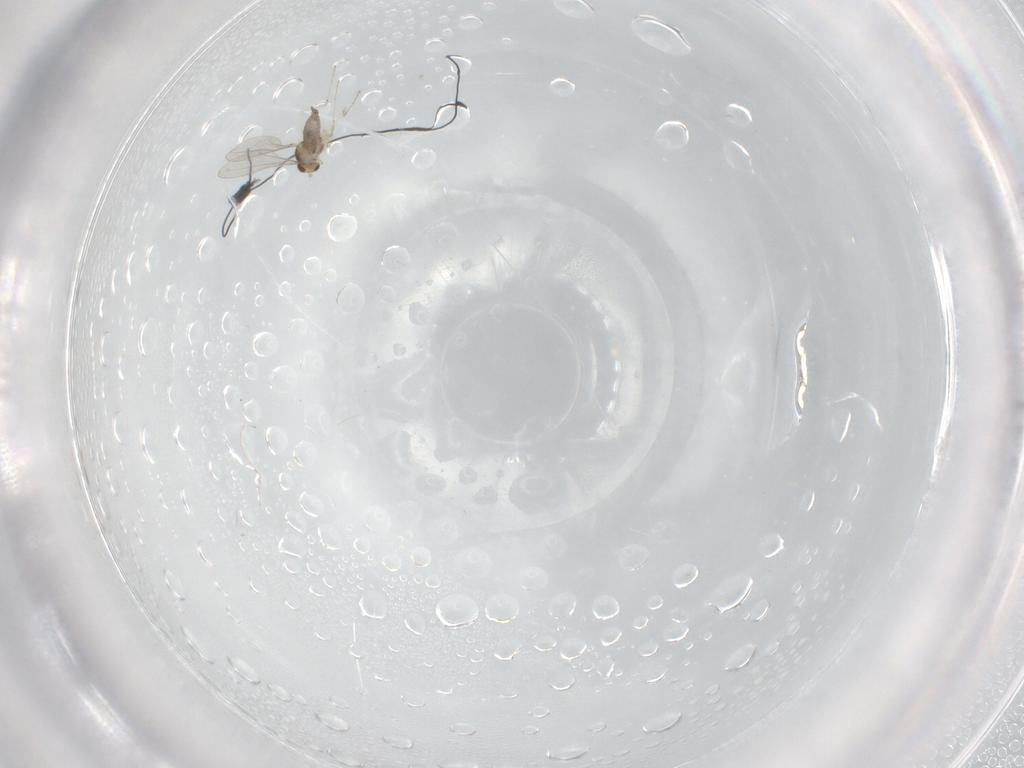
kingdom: Animalia
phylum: Arthropoda
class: Insecta
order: Diptera
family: Cecidomyiidae
